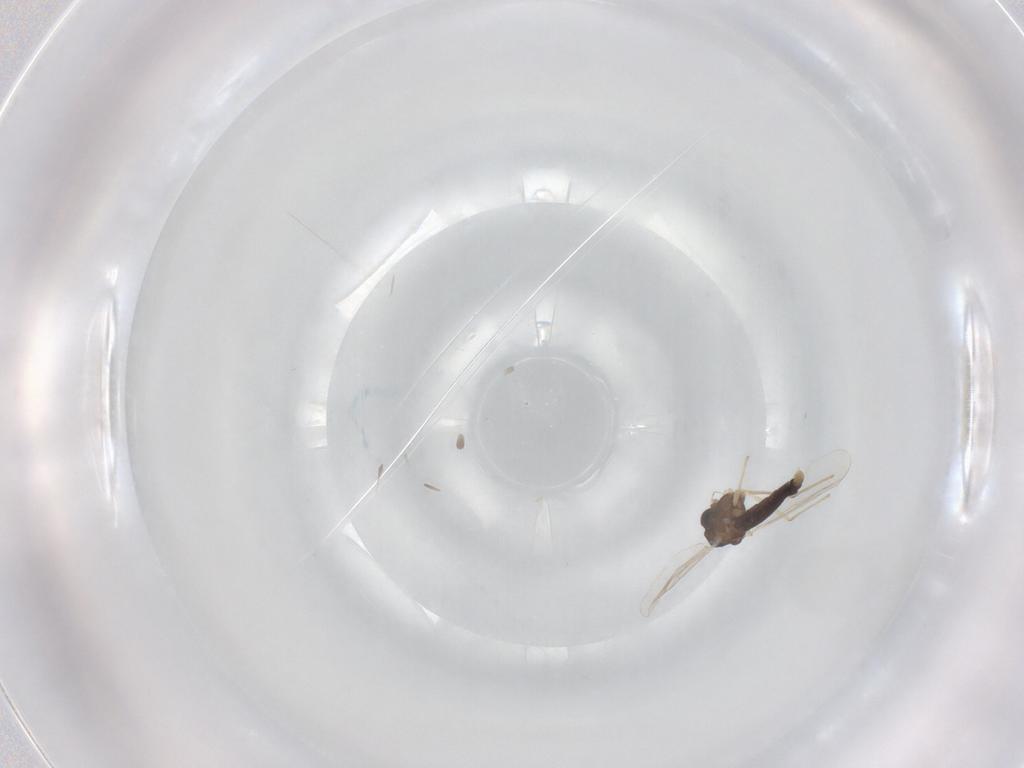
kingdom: Animalia
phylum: Arthropoda
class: Insecta
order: Diptera
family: Chironomidae
